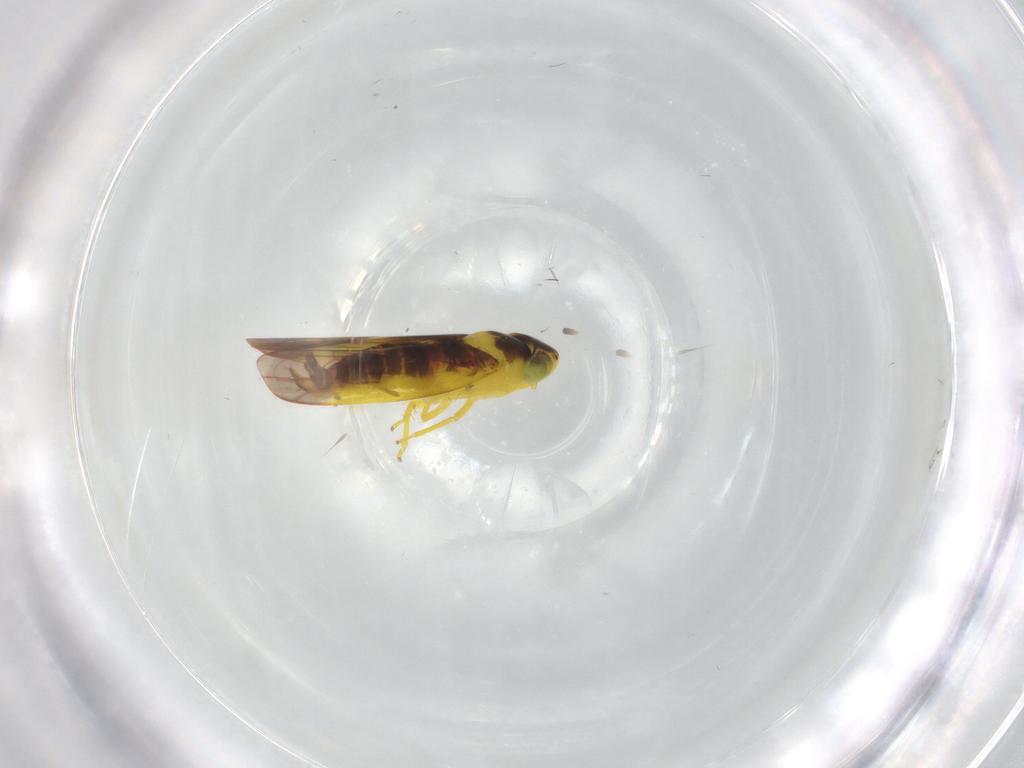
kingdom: Animalia
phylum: Arthropoda
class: Insecta
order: Hemiptera
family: Cicadellidae
